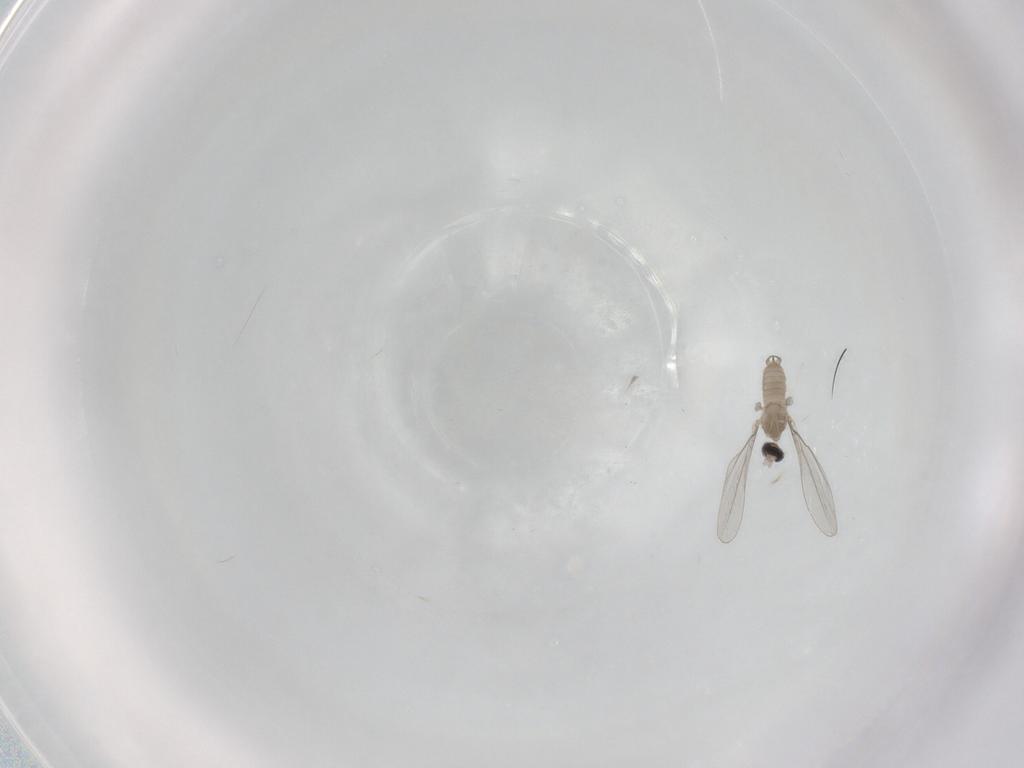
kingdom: Animalia
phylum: Arthropoda
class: Insecta
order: Diptera
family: Cecidomyiidae
